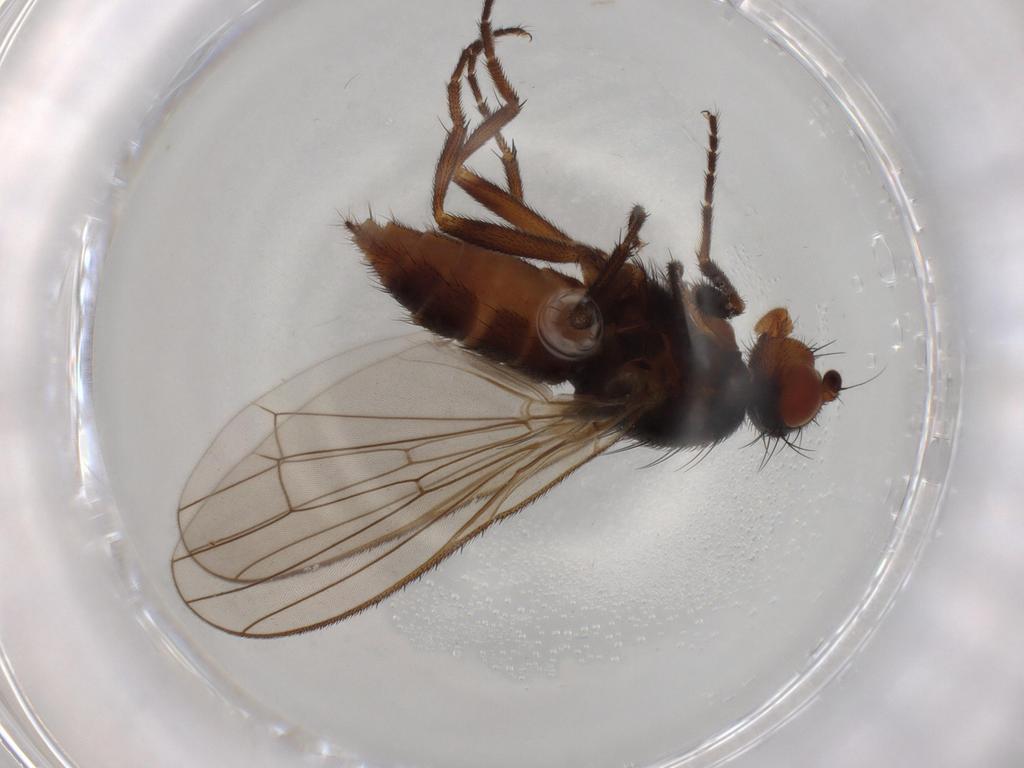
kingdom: Animalia
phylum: Arthropoda
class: Insecta
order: Diptera
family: Heleomyzidae
